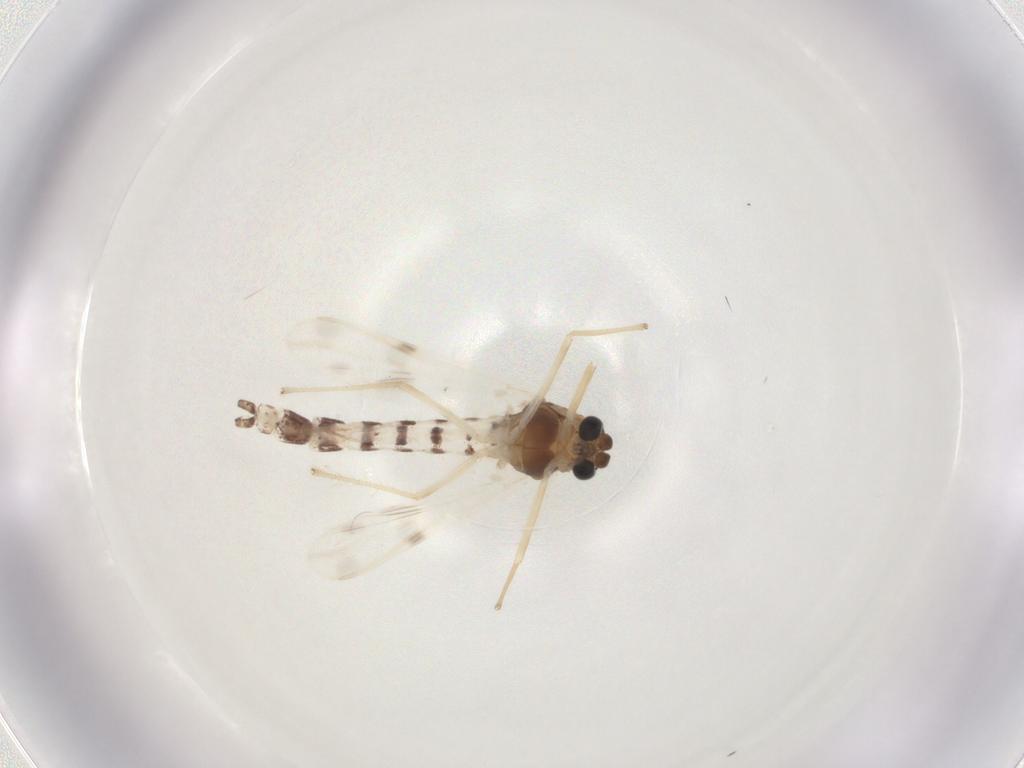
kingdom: Animalia
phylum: Arthropoda
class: Insecta
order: Diptera
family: Chironomidae
